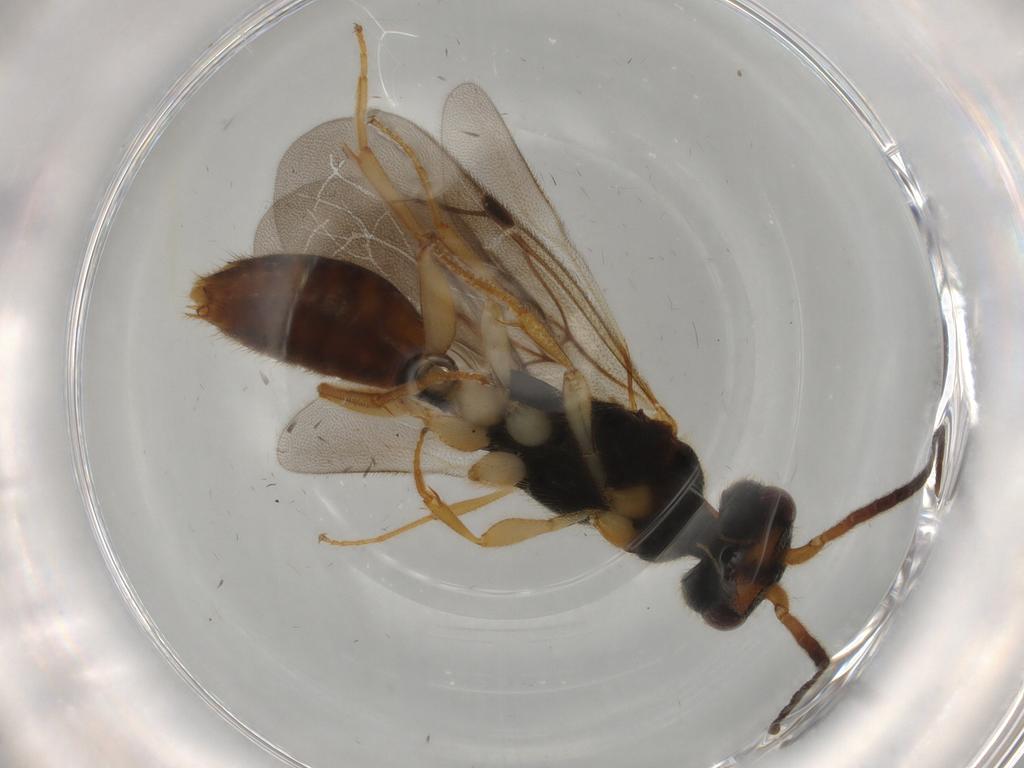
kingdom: Animalia
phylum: Arthropoda
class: Insecta
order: Hymenoptera
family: Bethylidae
